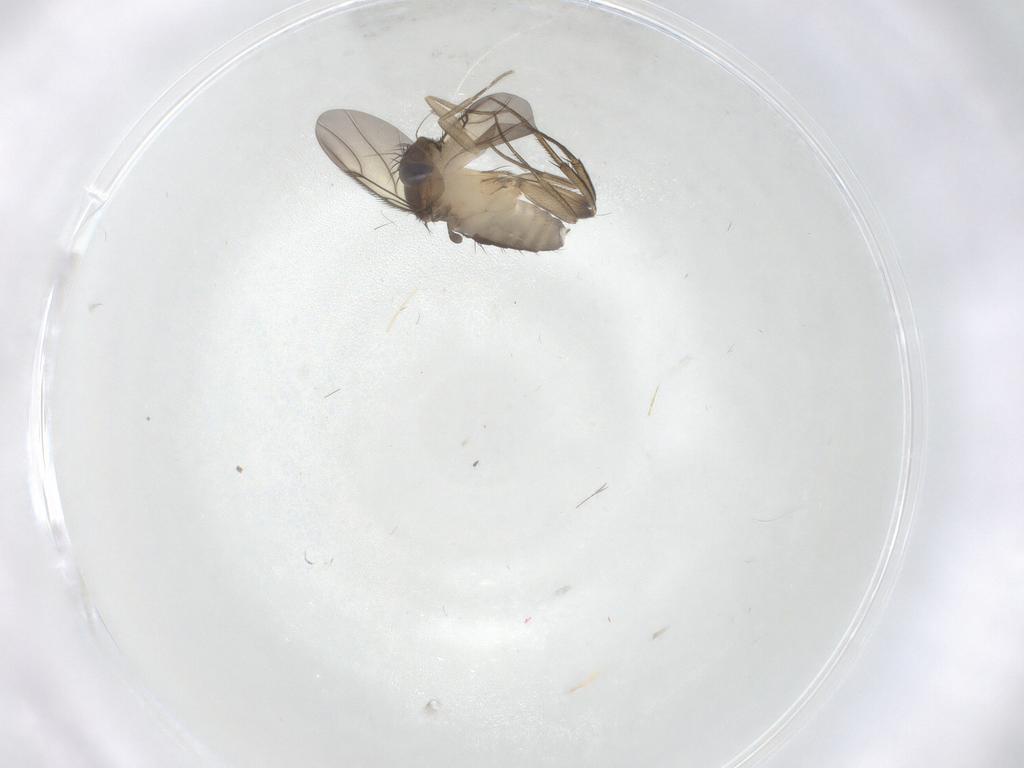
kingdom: Animalia
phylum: Arthropoda
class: Insecta
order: Diptera
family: Phoridae
